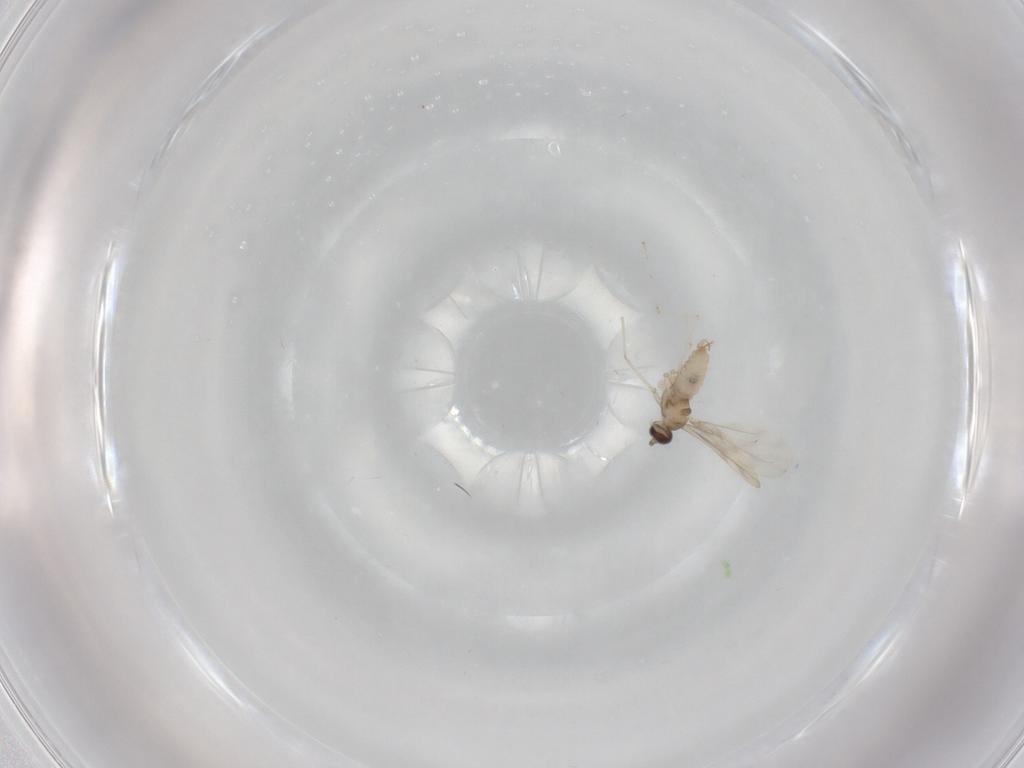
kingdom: Animalia
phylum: Arthropoda
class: Insecta
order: Diptera
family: Cecidomyiidae
